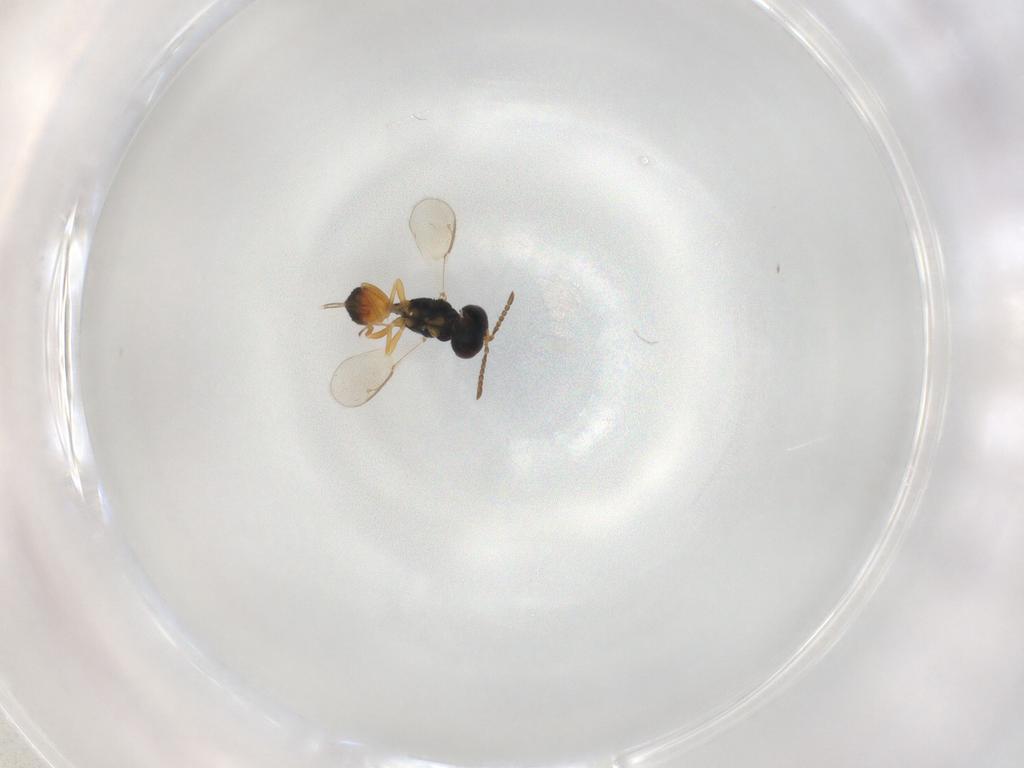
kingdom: Animalia
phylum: Arthropoda
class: Insecta
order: Hymenoptera
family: Pteromalidae
